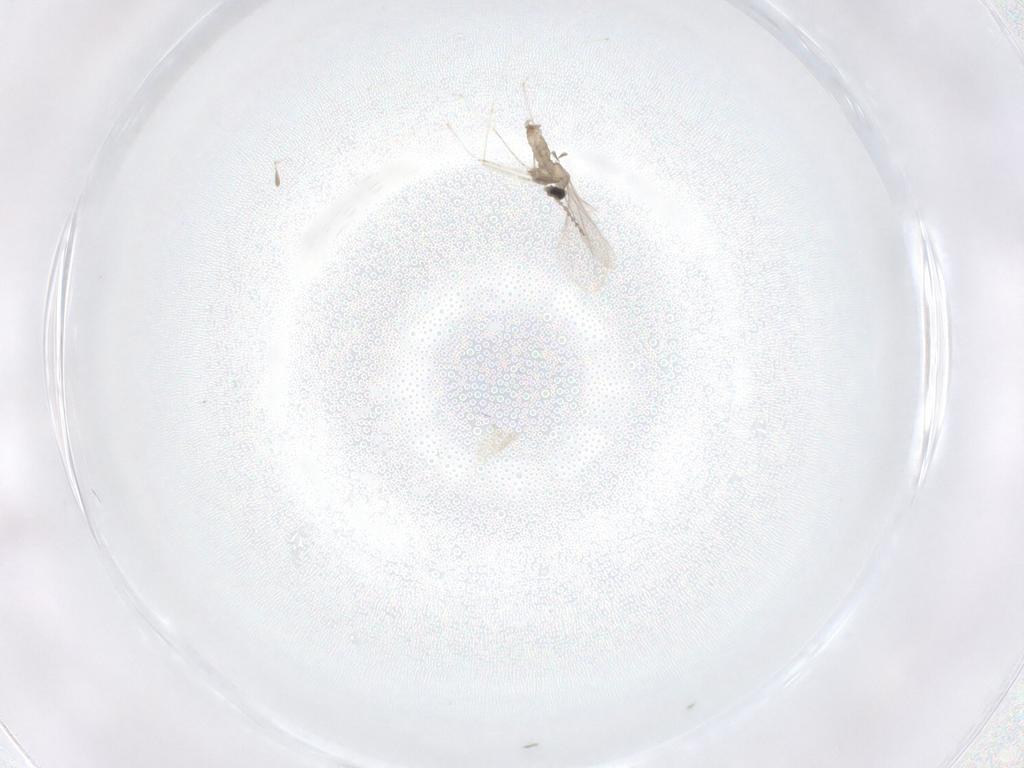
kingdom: Animalia
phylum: Arthropoda
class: Insecta
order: Diptera
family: Cecidomyiidae
